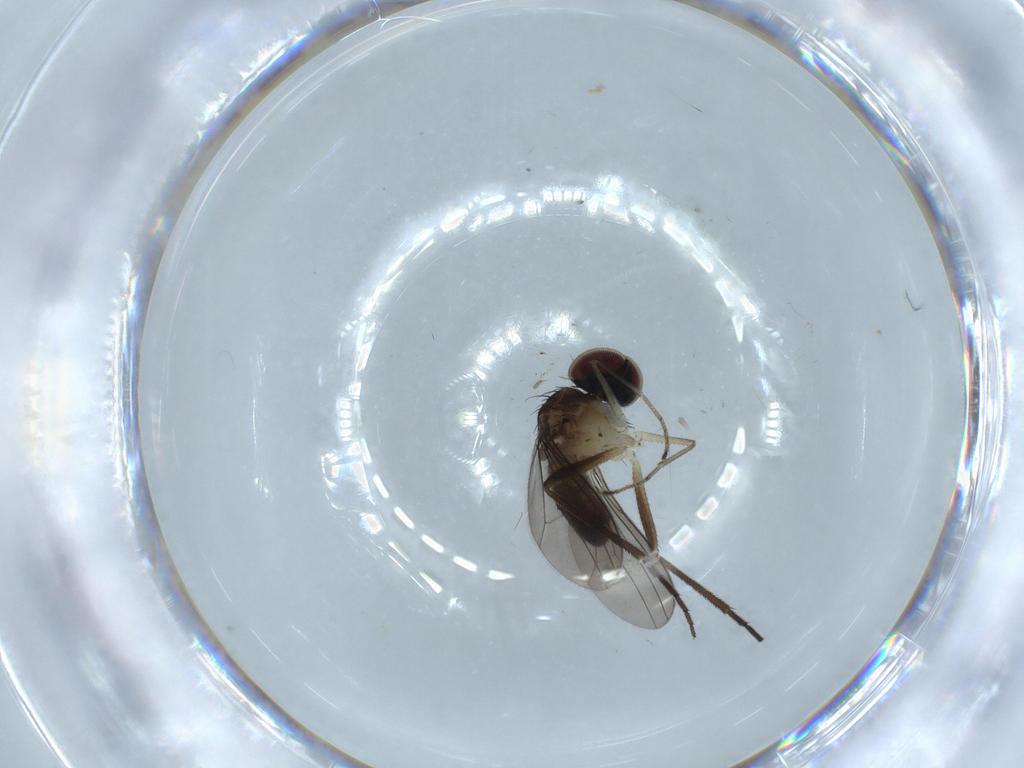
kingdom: Animalia
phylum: Arthropoda
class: Insecta
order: Diptera
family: Dolichopodidae
